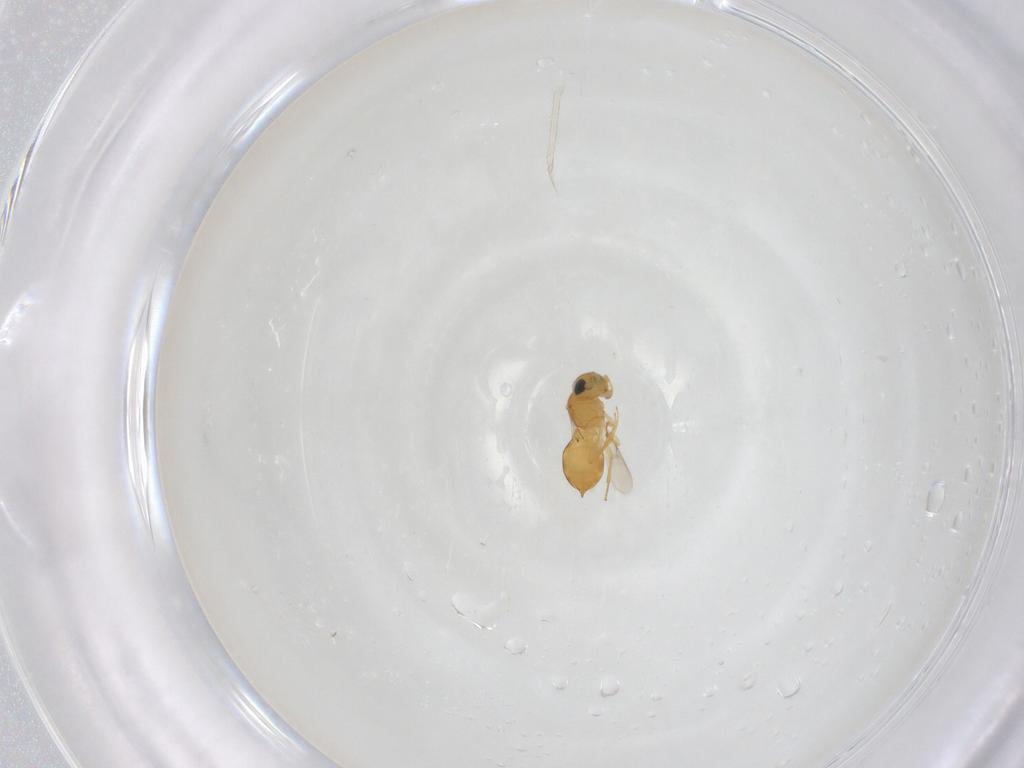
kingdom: Animalia
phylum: Arthropoda
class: Insecta
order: Hymenoptera
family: Scelionidae
